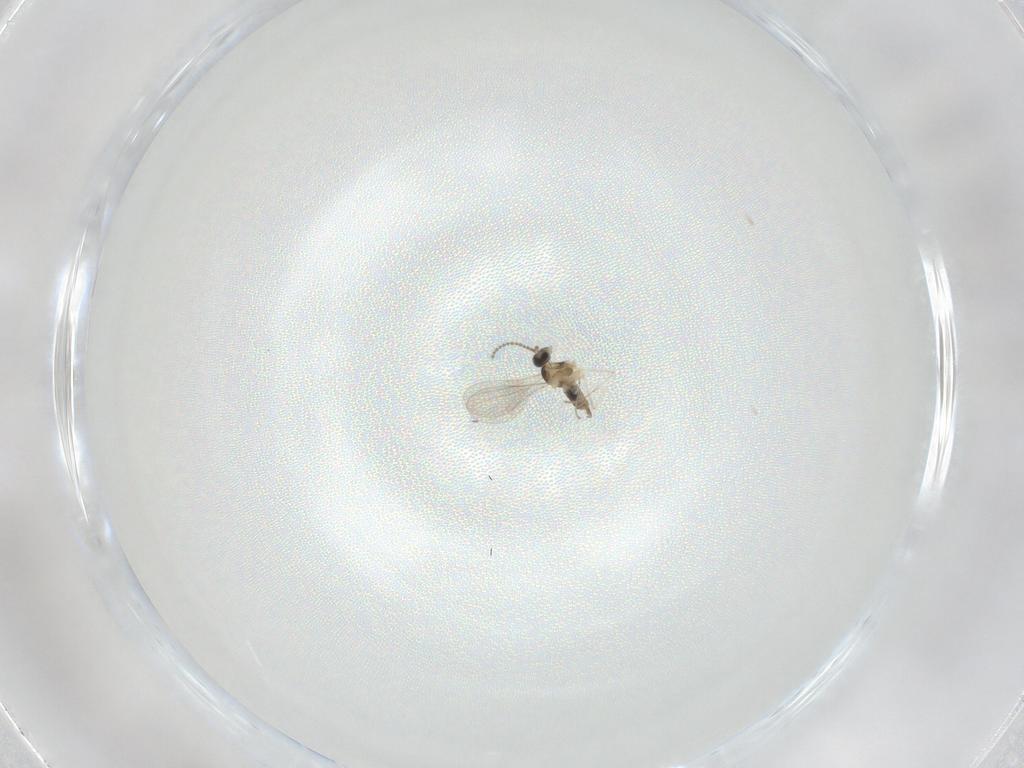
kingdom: Animalia
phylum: Arthropoda
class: Insecta
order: Diptera
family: Cecidomyiidae
